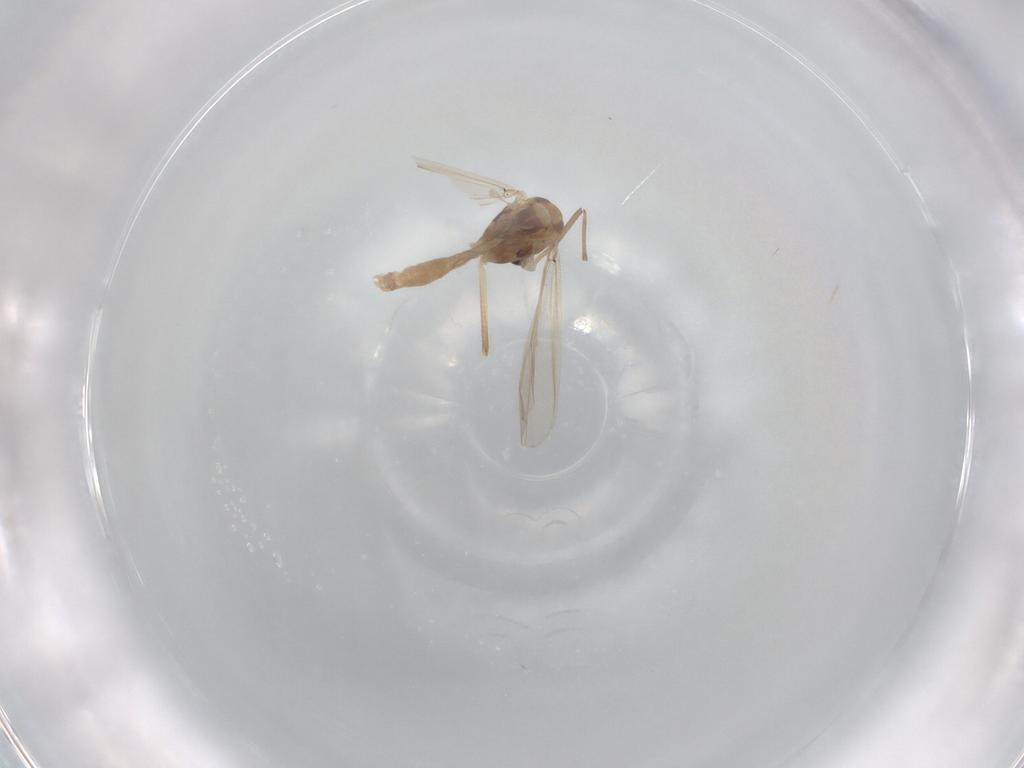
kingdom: Animalia
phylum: Arthropoda
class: Insecta
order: Diptera
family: Chironomidae
